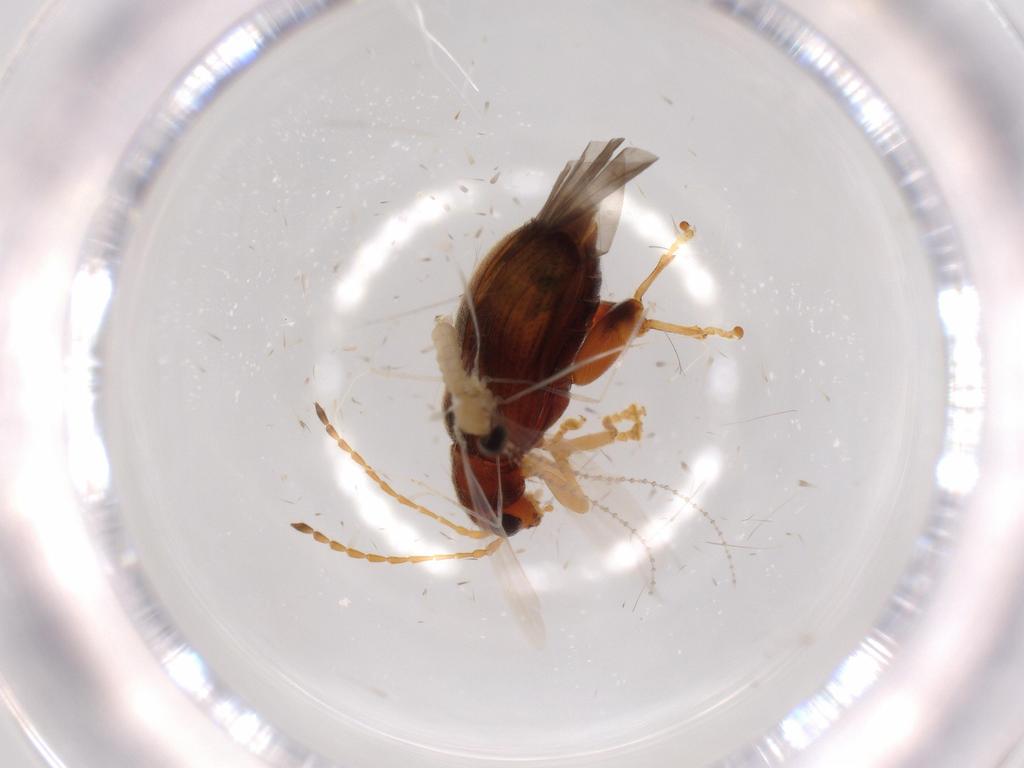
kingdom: Animalia
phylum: Arthropoda
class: Insecta
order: Coleoptera
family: Chrysomelidae
